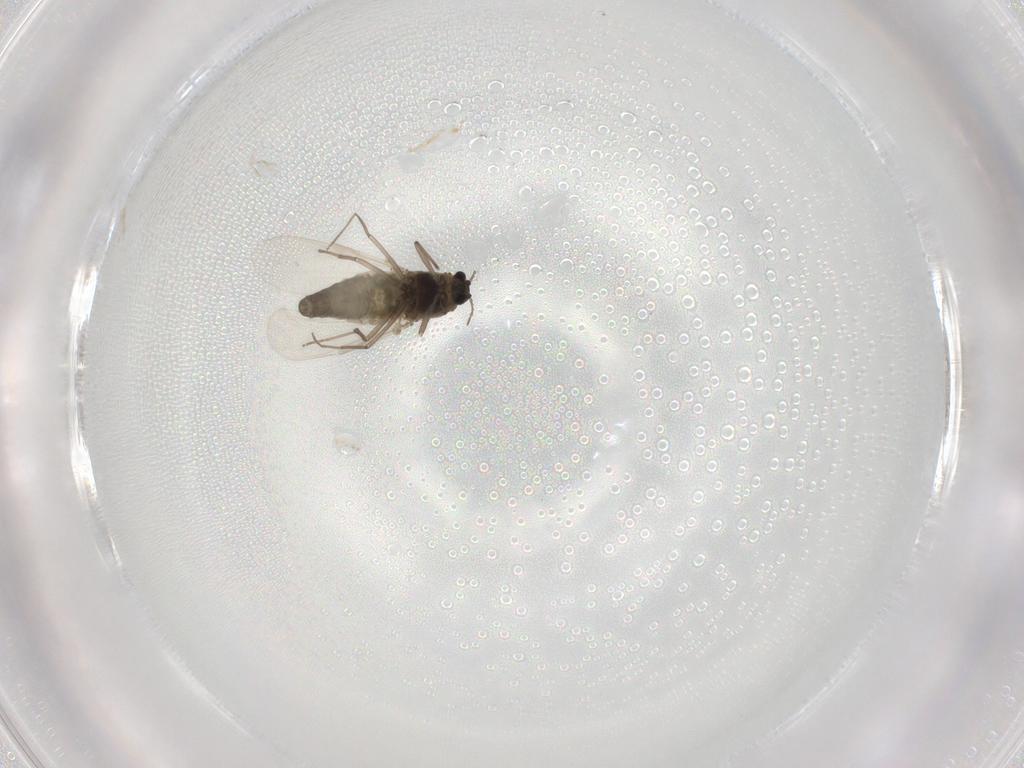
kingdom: Animalia
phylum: Arthropoda
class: Insecta
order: Diptera
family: Chironomidae
